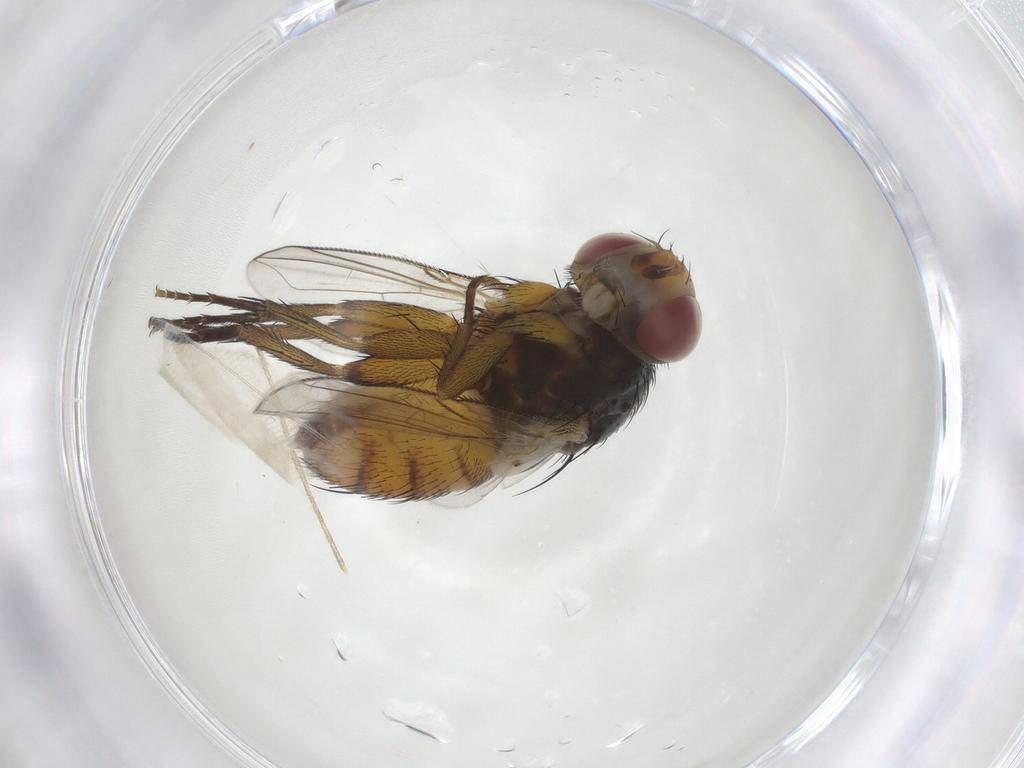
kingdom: Animalia
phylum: Arthropoda
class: Insecta
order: Diptera
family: Tachinidae
